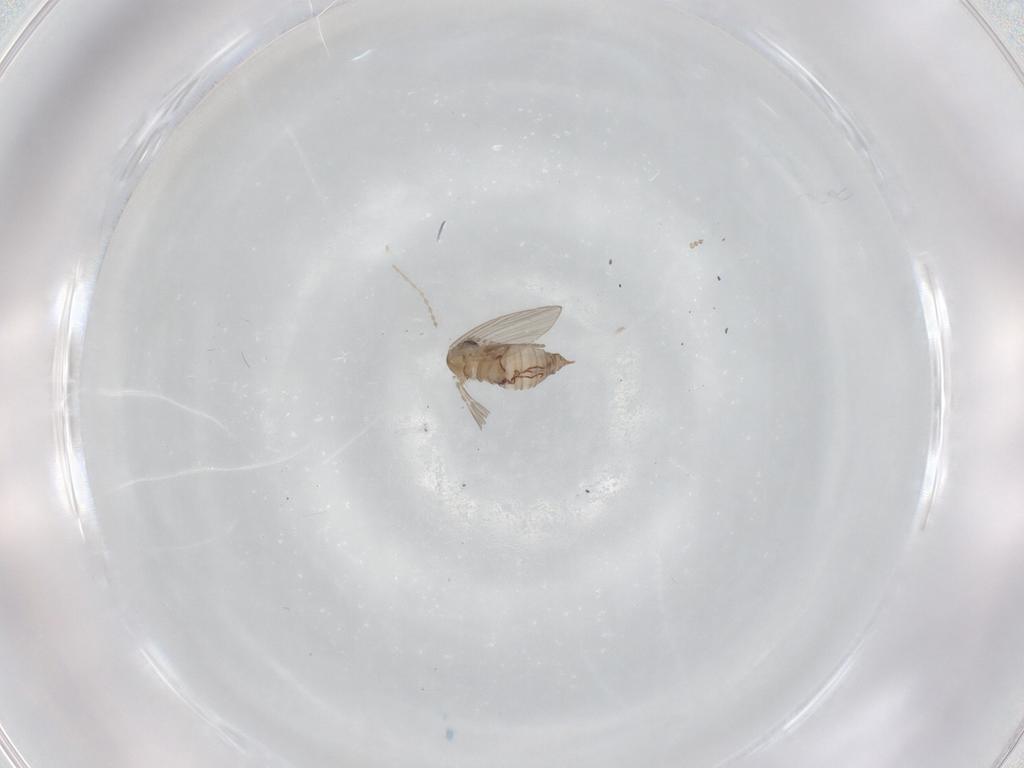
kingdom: Animalia
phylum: Arthropoda
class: Insecta
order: Diptera
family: Psychodidae
